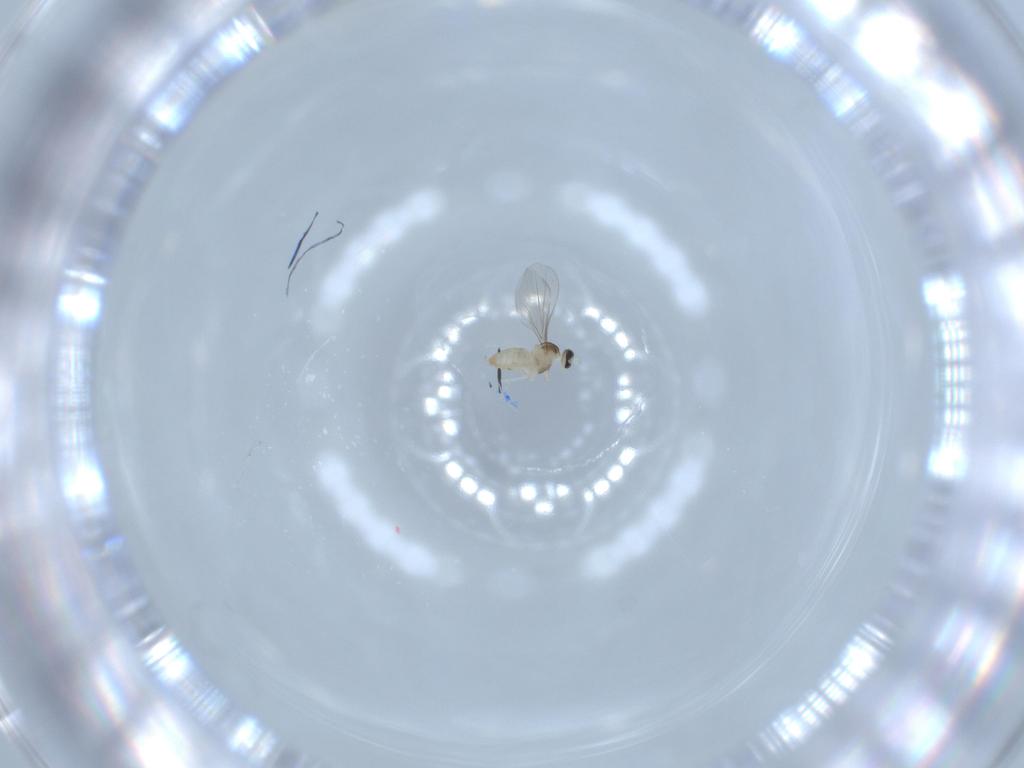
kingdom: Animalia
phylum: Arthropoda
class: Insecta
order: Diptera
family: Cecidomyiidae
